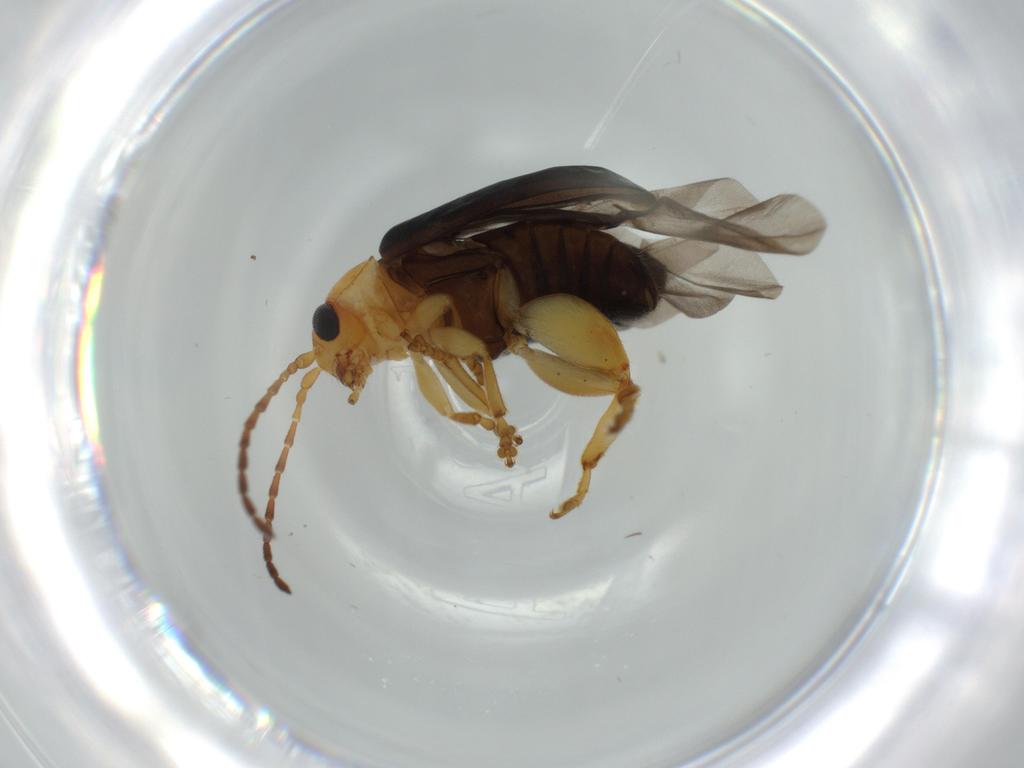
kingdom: Animalia
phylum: Arthropoda
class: Insecta
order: Coleoptera
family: Chrysomelidae
